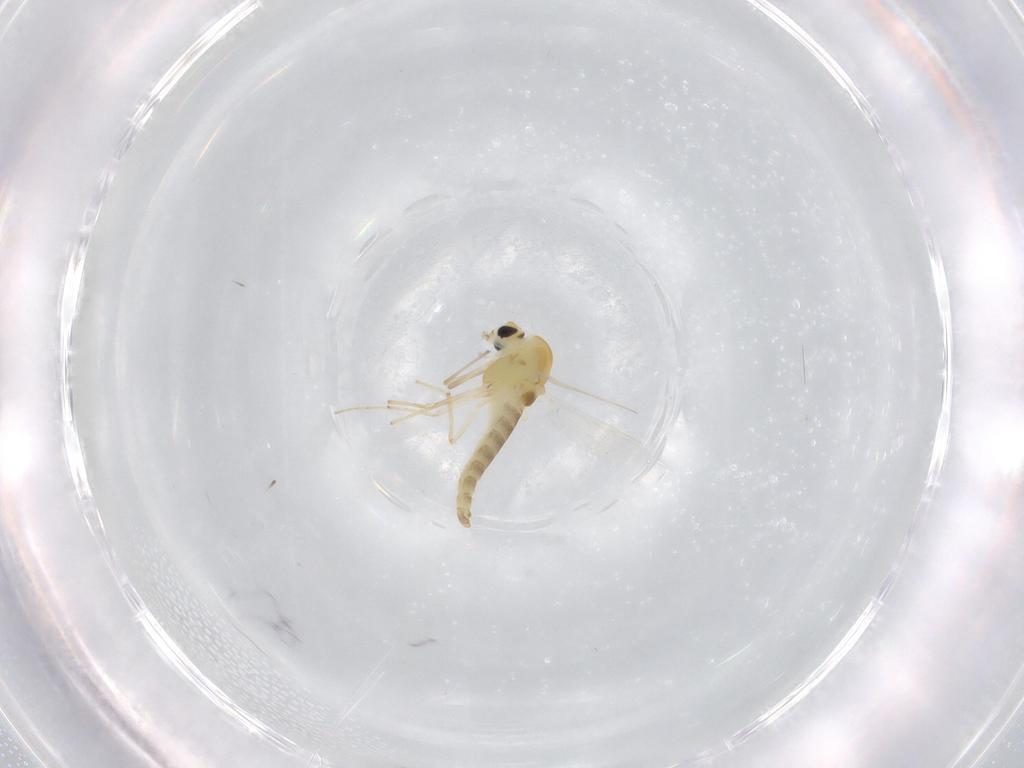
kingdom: Animalia
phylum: Arthropoda
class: Insecta
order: Diptera
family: Chironomidae
